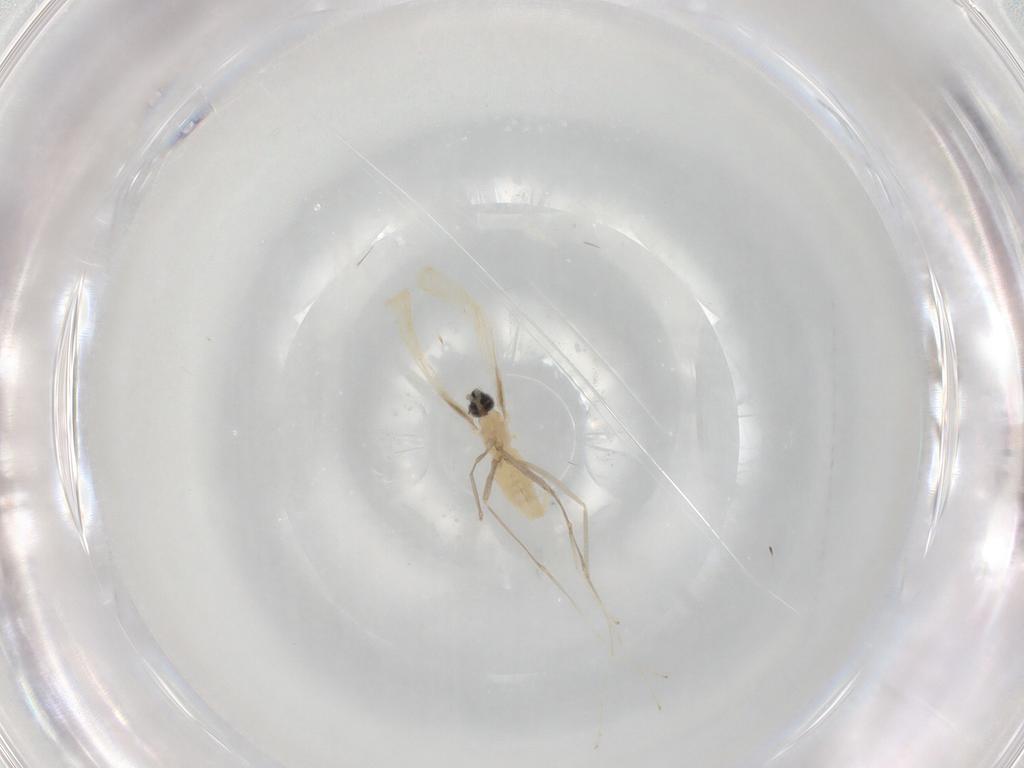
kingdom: Animalia
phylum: Arthropoda
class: Insecta
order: Diptera
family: Cecidomyiidae
